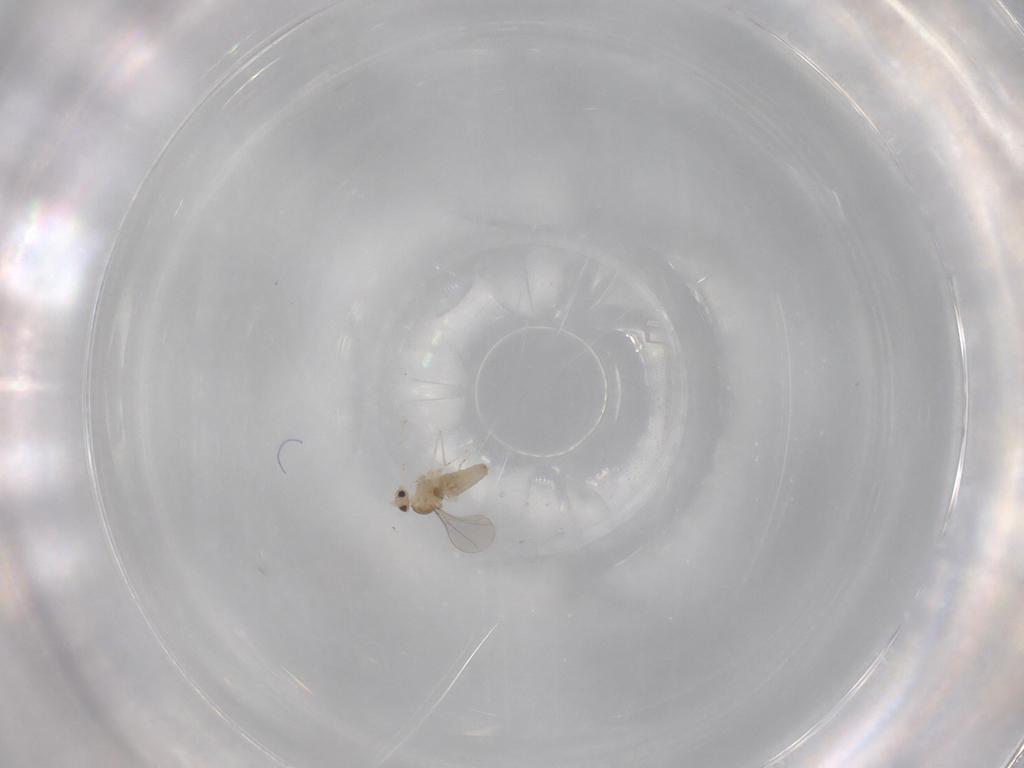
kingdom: Animalia
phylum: Arthropoda
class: Insecta
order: Diptera
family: Cecidomyiidae
